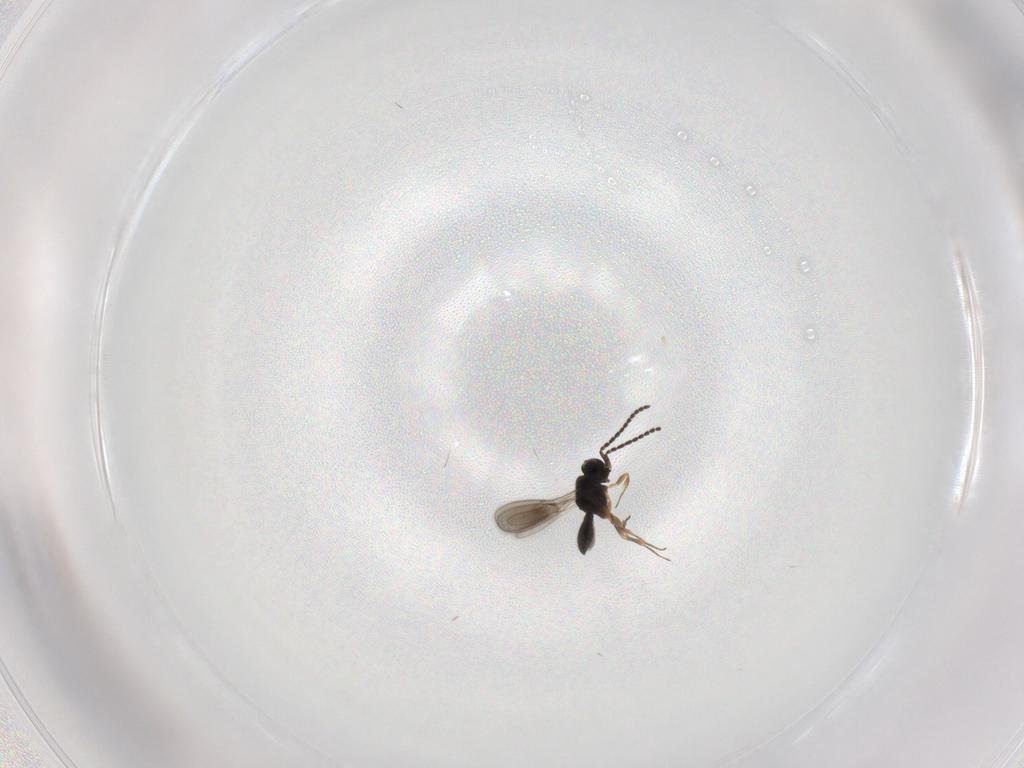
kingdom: Animalia
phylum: Arthropoda
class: Insecta
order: Hymenoptera
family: Scelionidae
